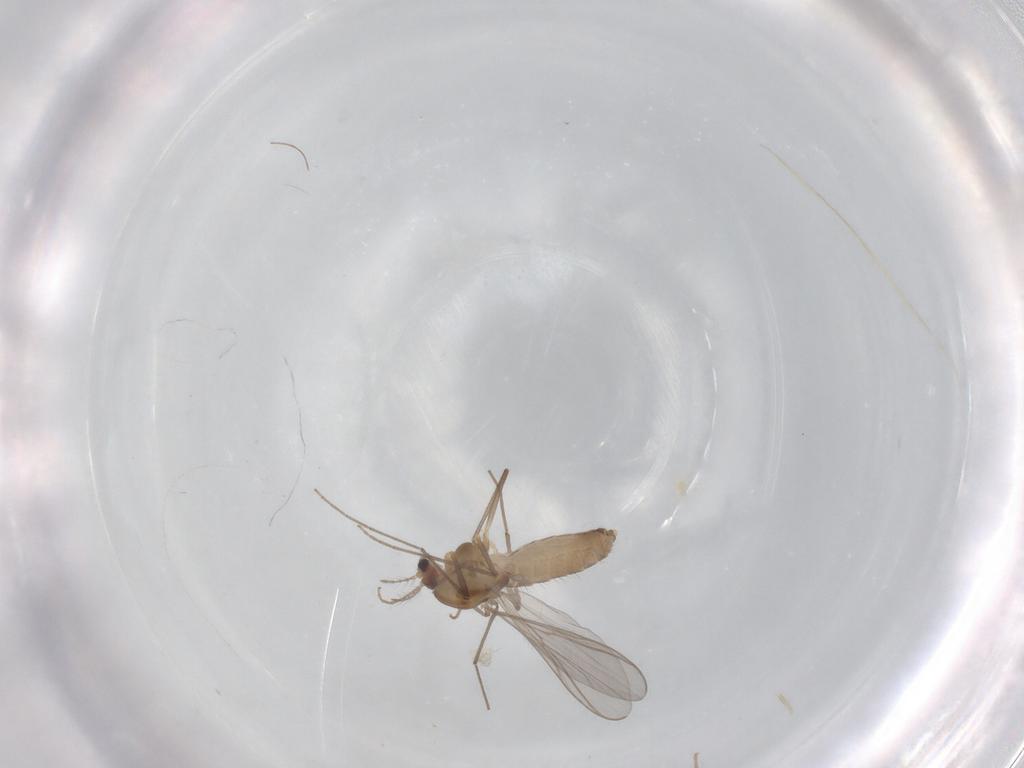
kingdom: Animalia
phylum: Arthropoda
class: Insecta
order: Diptera
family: Chironomidae
